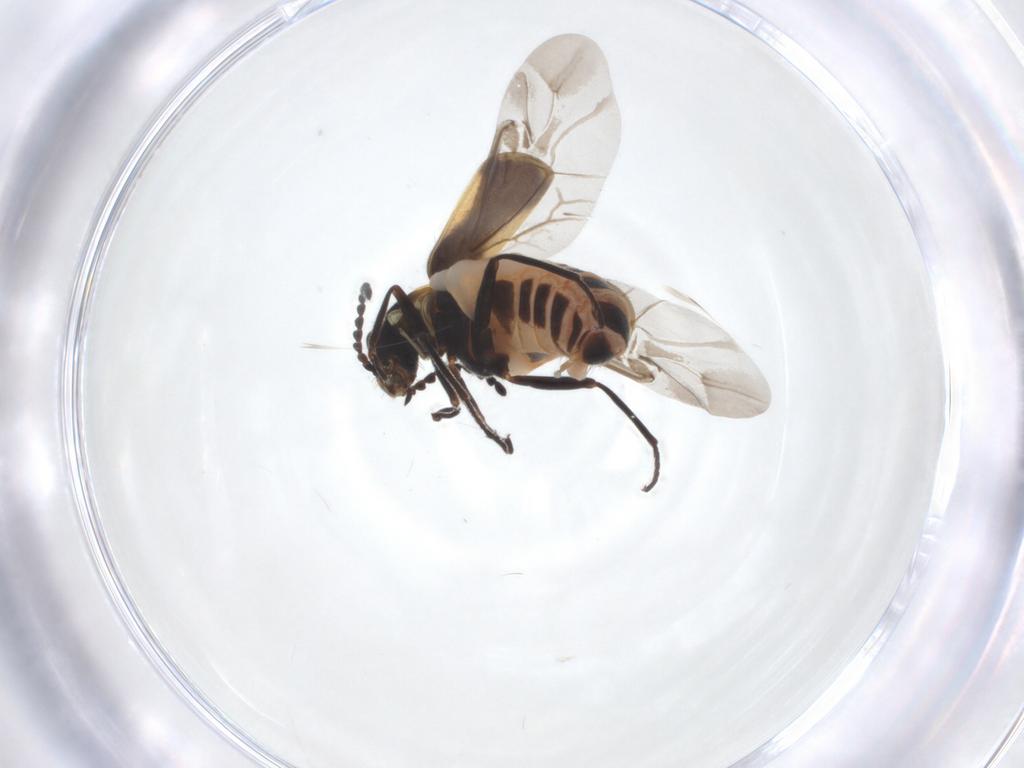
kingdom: Animalia
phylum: Arthropoda
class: Insecta
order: Coleoptera
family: Melyridae
